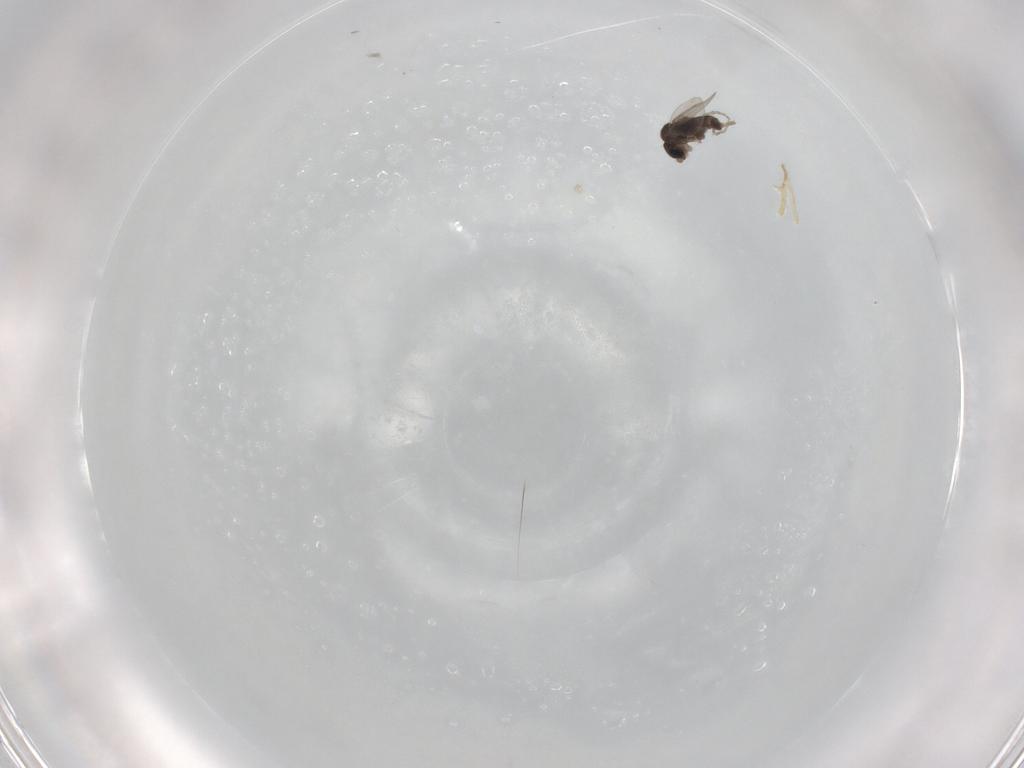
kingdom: Animalia
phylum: Arthropoda
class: Insecta
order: Diptera
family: Phoridae
